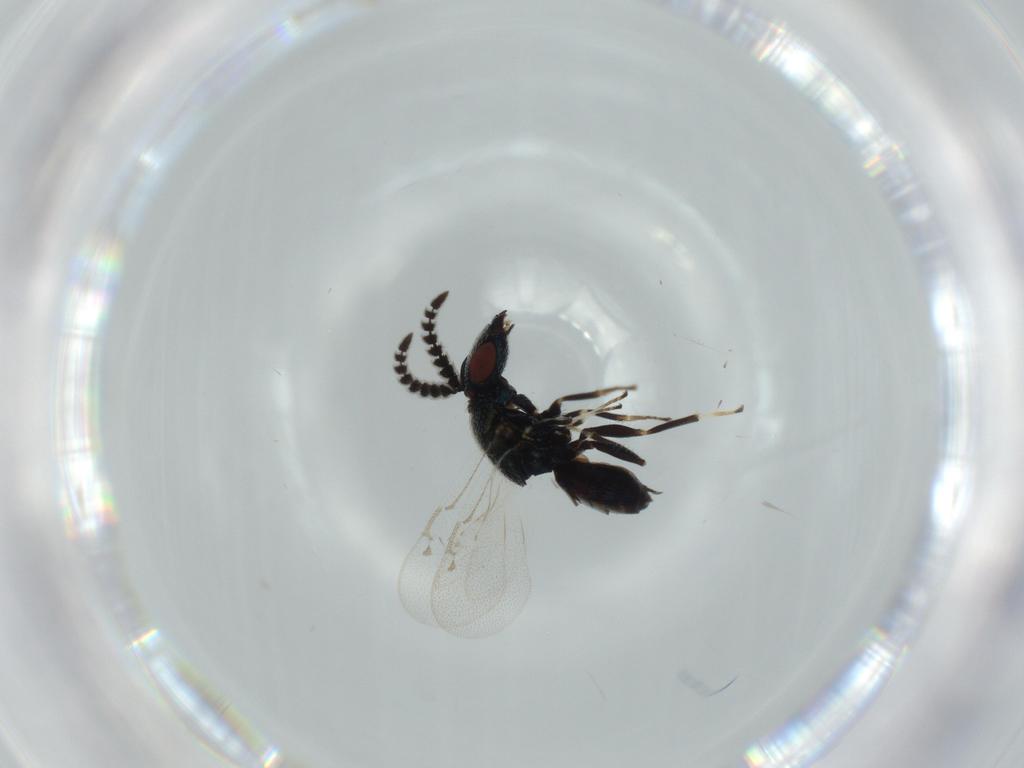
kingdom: Animalia
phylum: Arthropoda
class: Insecta
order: Hymenoptera
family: Pteromalidae
